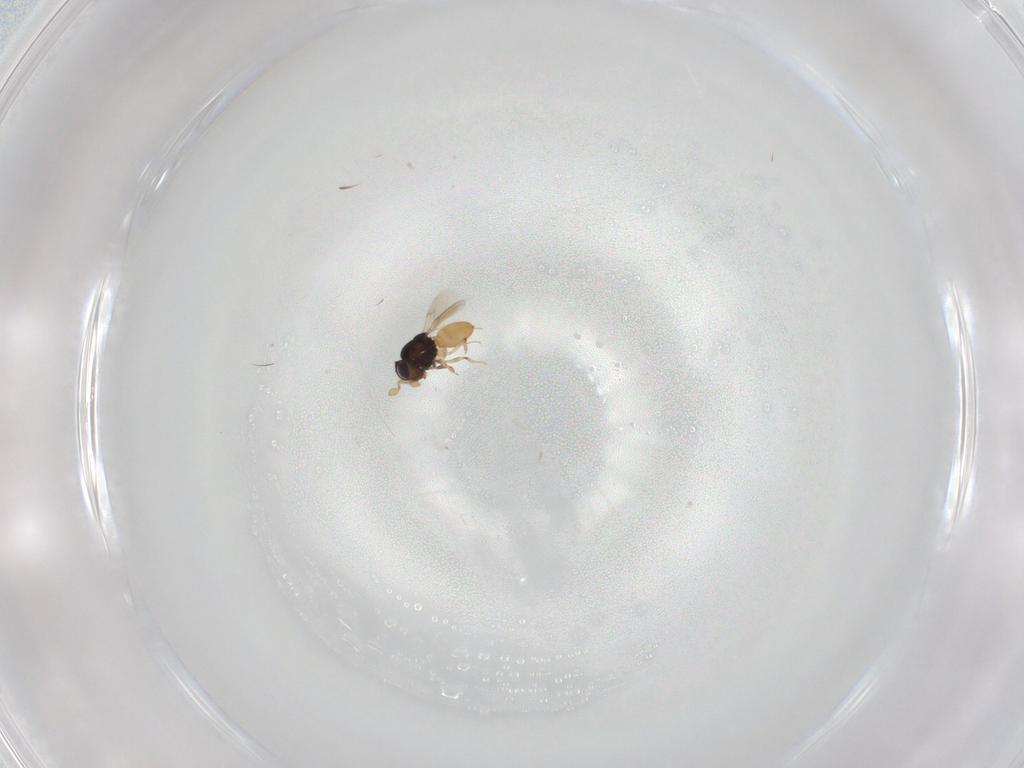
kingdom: Animalia
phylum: Arthropoda
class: Insecta
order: Hymenoptera
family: Scelionidae
